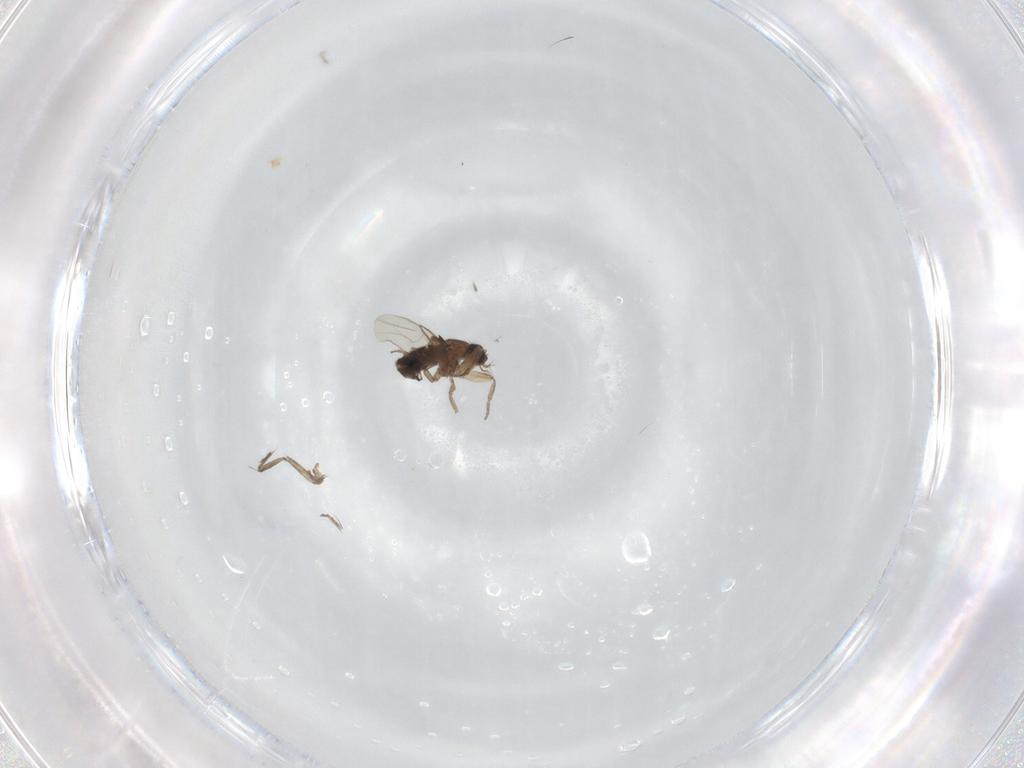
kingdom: Animalia
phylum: Arthropoda
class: Insecta
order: Diptera
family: Phoridae
